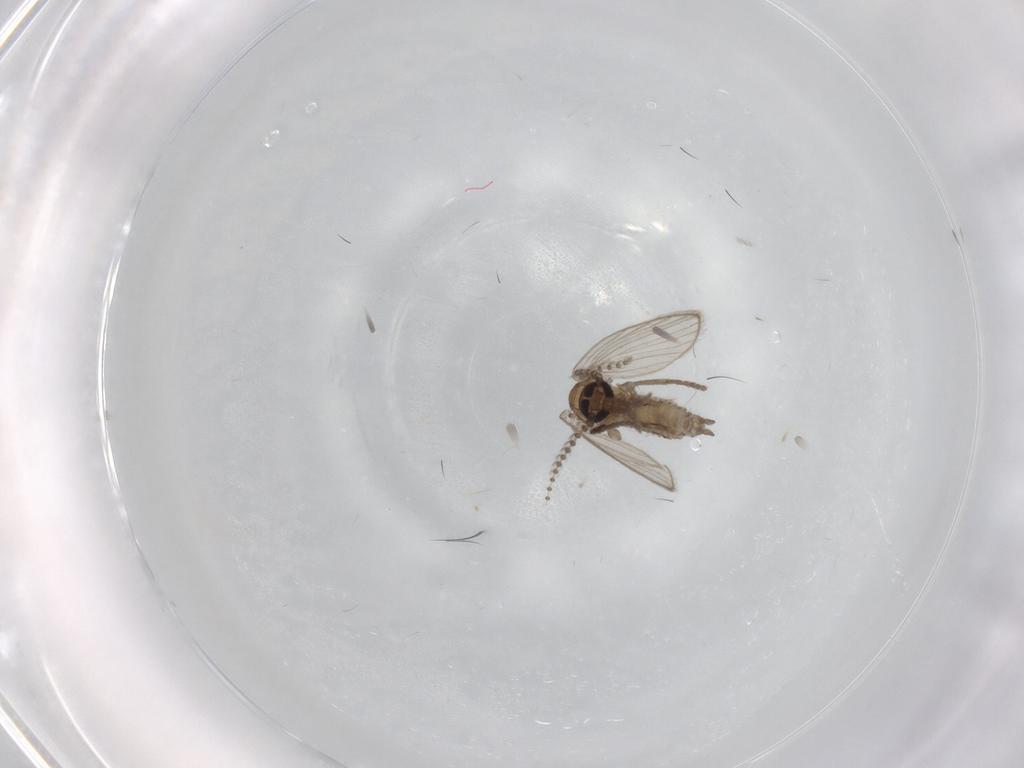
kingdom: Animalia
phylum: Arthropoda
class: Insecta
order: Diptera
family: Psychodidae
